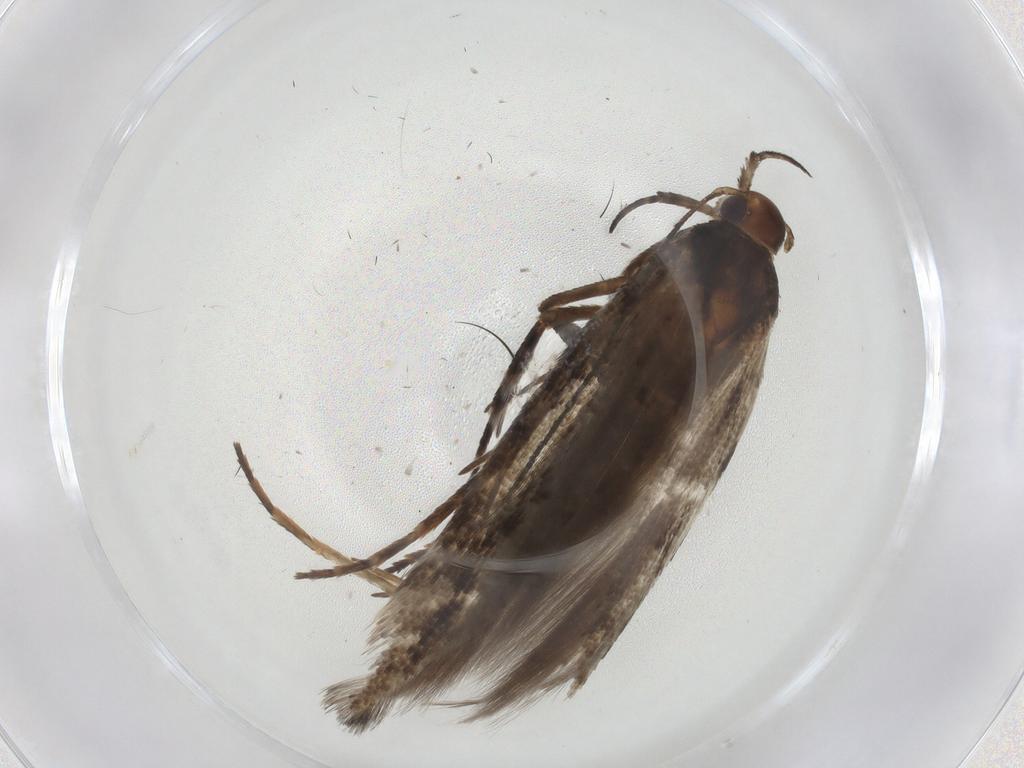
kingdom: Animalia
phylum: Arthropoda
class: Insecta
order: Lepidoptera
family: Gelechiidae
